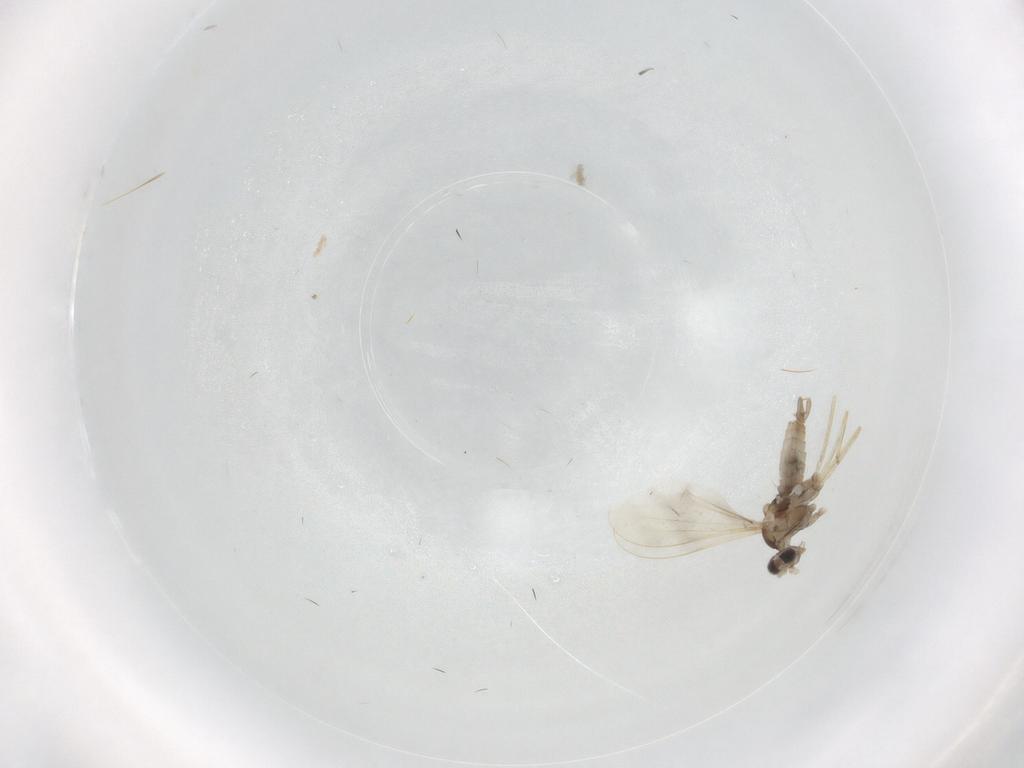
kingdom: Animalia
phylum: Arthropoda
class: Insecta
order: Diptera
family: Cecidomyiidae
